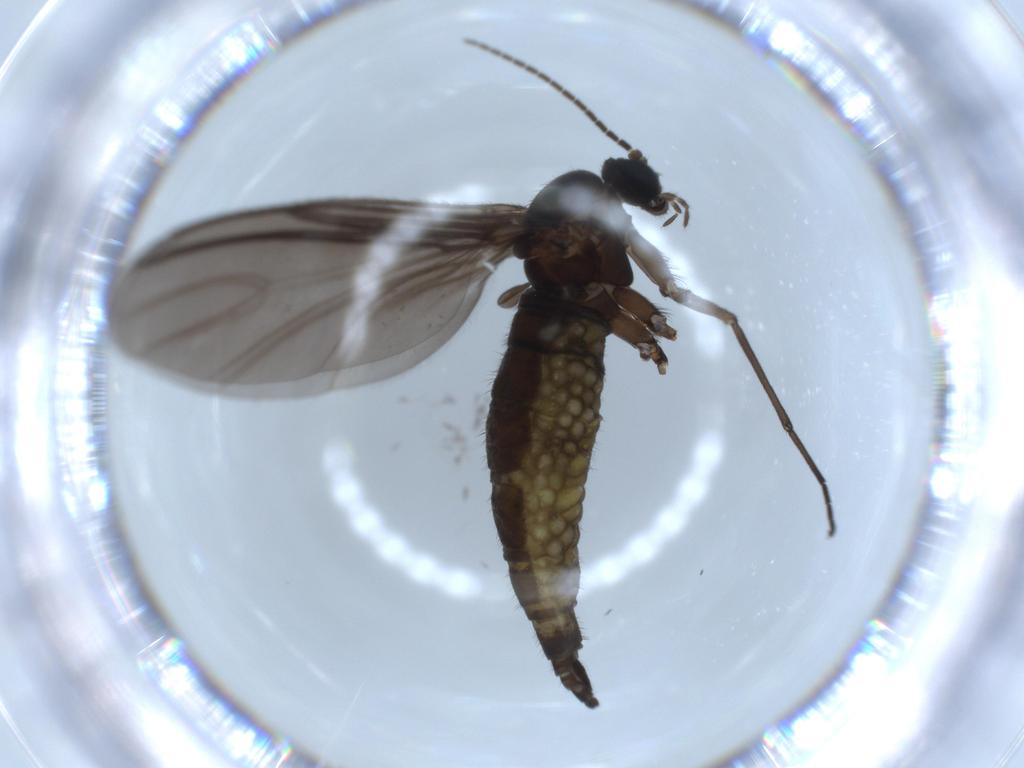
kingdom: Animalia
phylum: Arthropoda
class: Insecta
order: Diptera
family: Sciaridae
